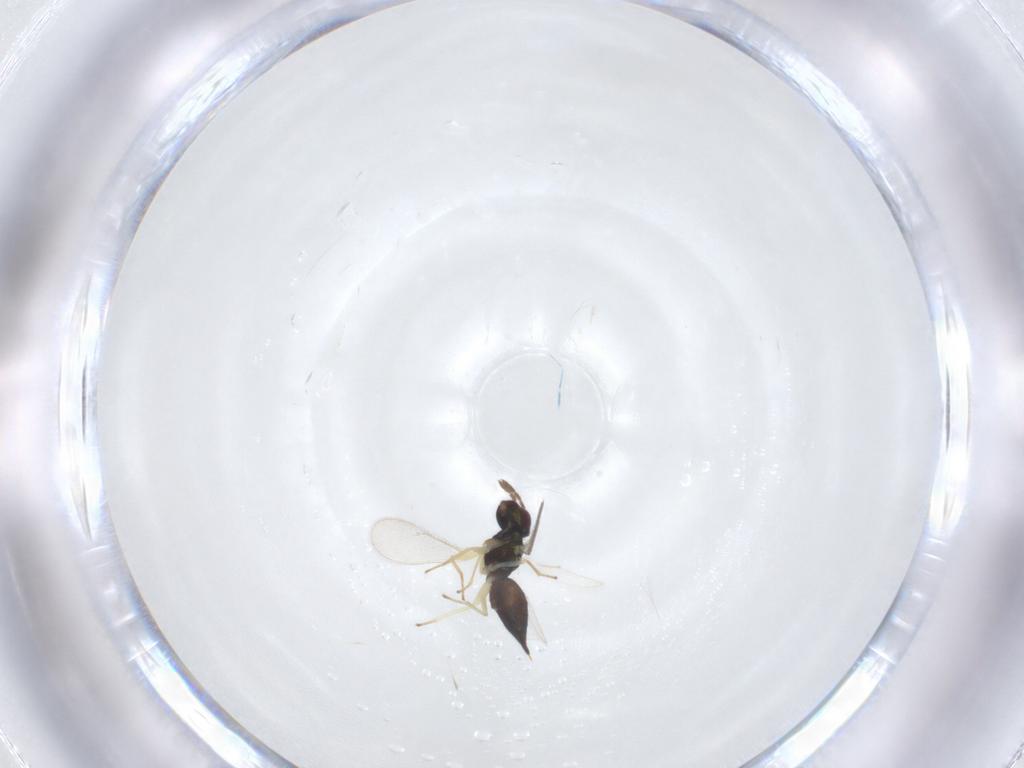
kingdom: Animalia
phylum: Arthropoda
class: Insecta
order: Hymenoptera
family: Eulophidae
